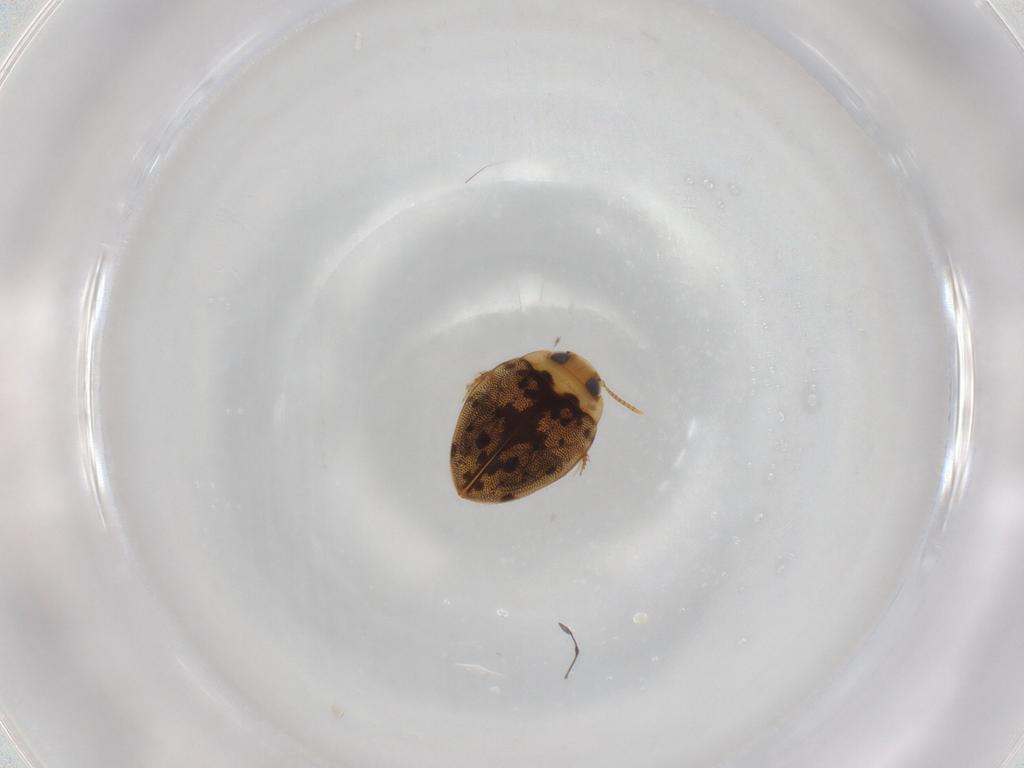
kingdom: Animalia
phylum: Arthropoda
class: Insecta
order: Coleoptera
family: Dytiscidae
